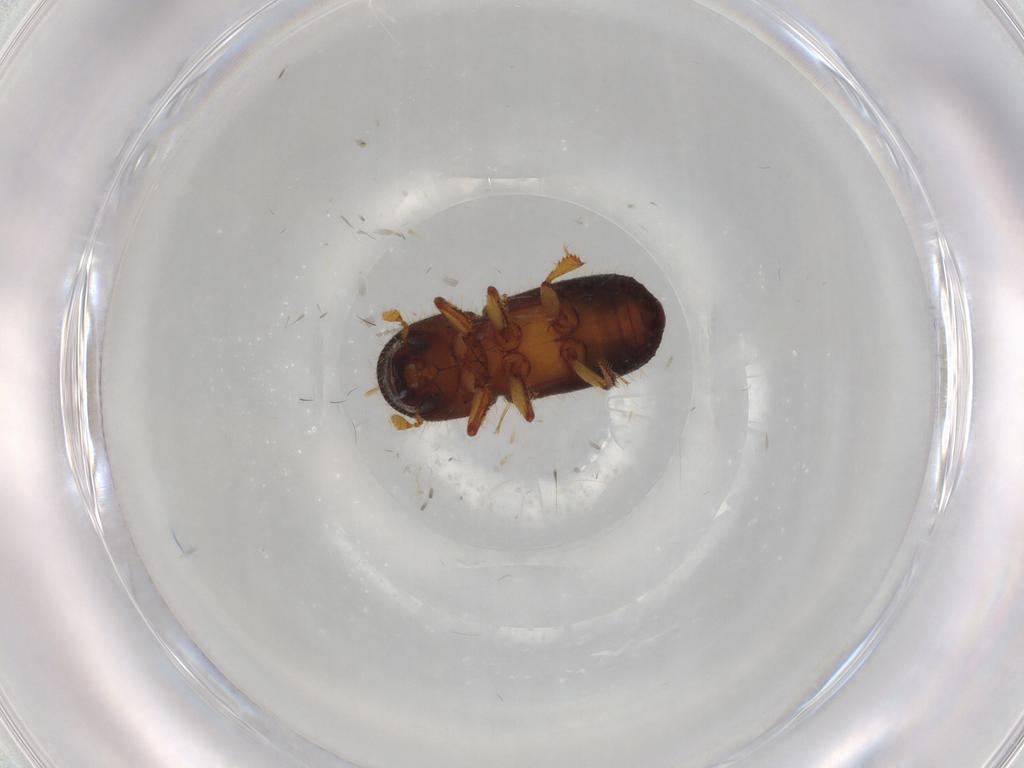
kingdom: Animalia
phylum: Arthropoda
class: Insecta
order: Coleoptera
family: Curculionidae
